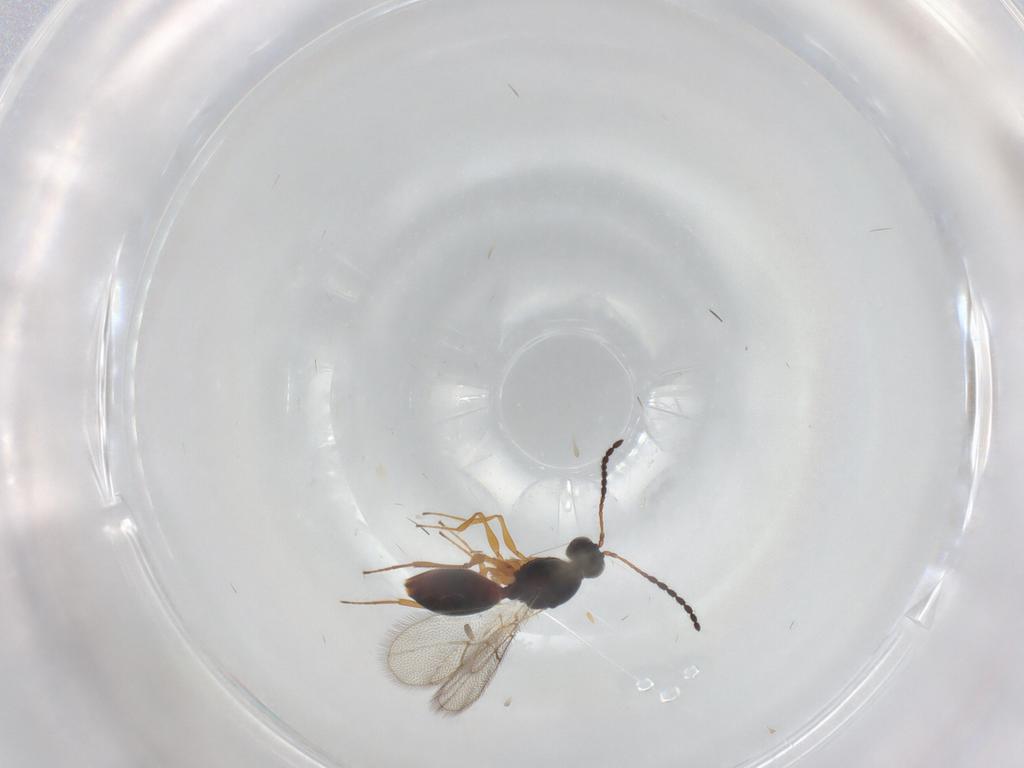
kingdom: Animalia
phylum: Arthropoda
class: Insecta
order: Hymenoptera
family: Figitidae
